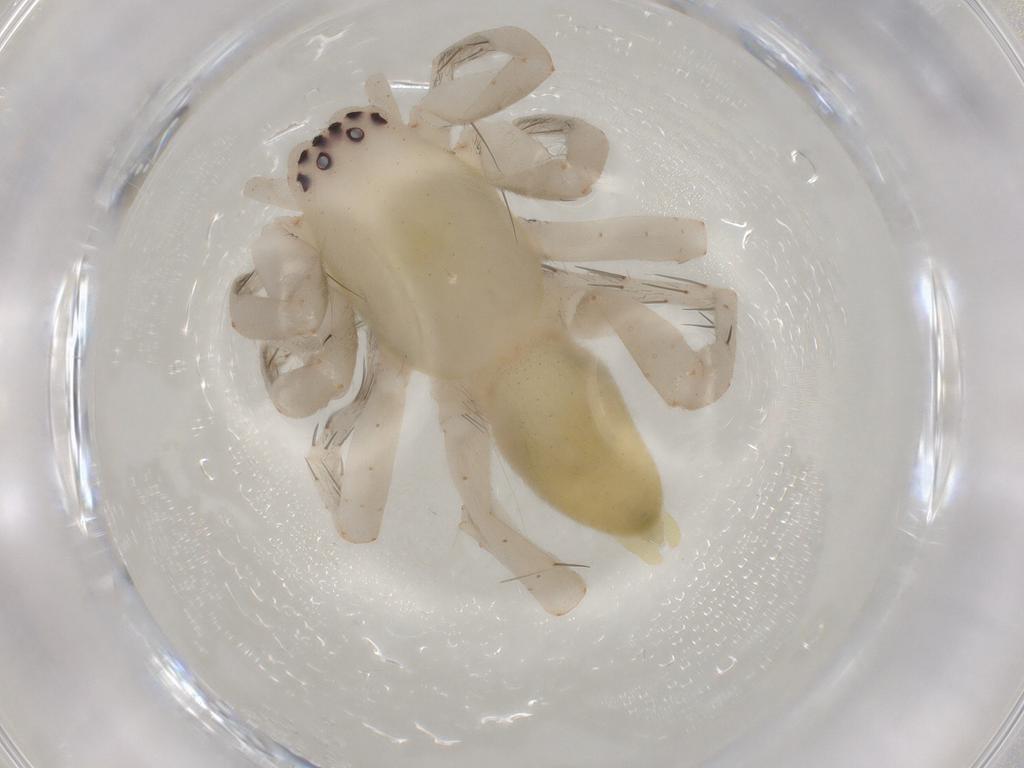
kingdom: Animalia
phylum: Arthropoda
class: Arachnida
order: Araneae
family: Clubionidae
